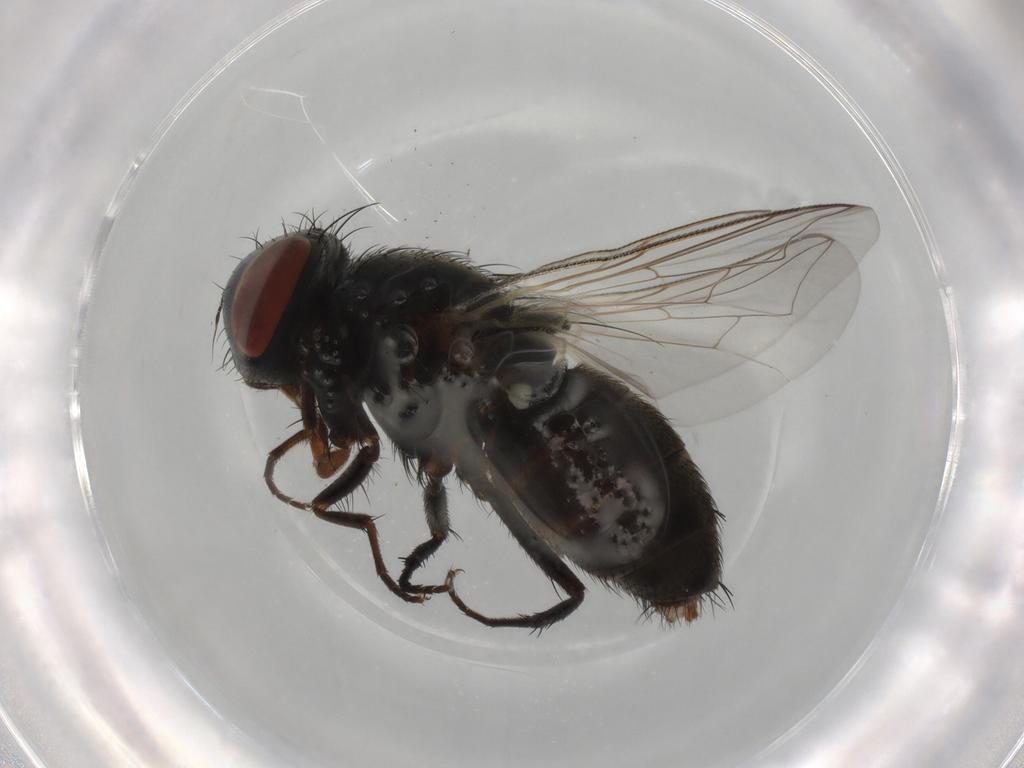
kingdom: Animalia
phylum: Arthropoda
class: Insecta
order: Diptera
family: Sarcophagidae
